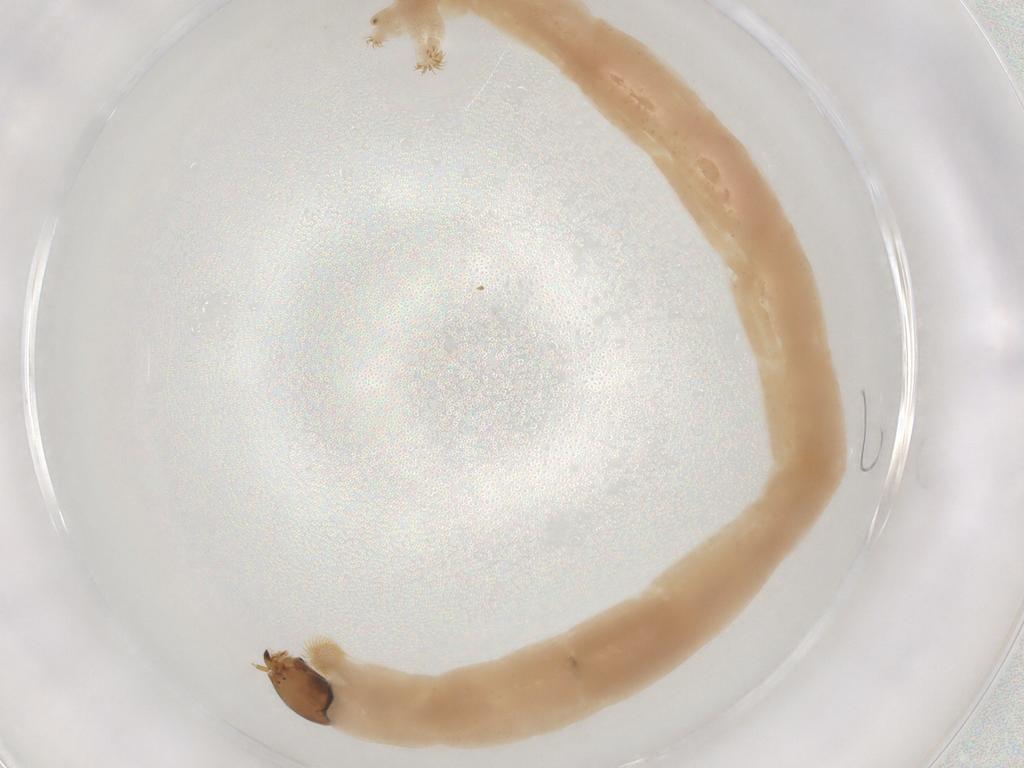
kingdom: Animalia
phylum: Arthropoda
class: Insecta
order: Diptera
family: Chironomidae
